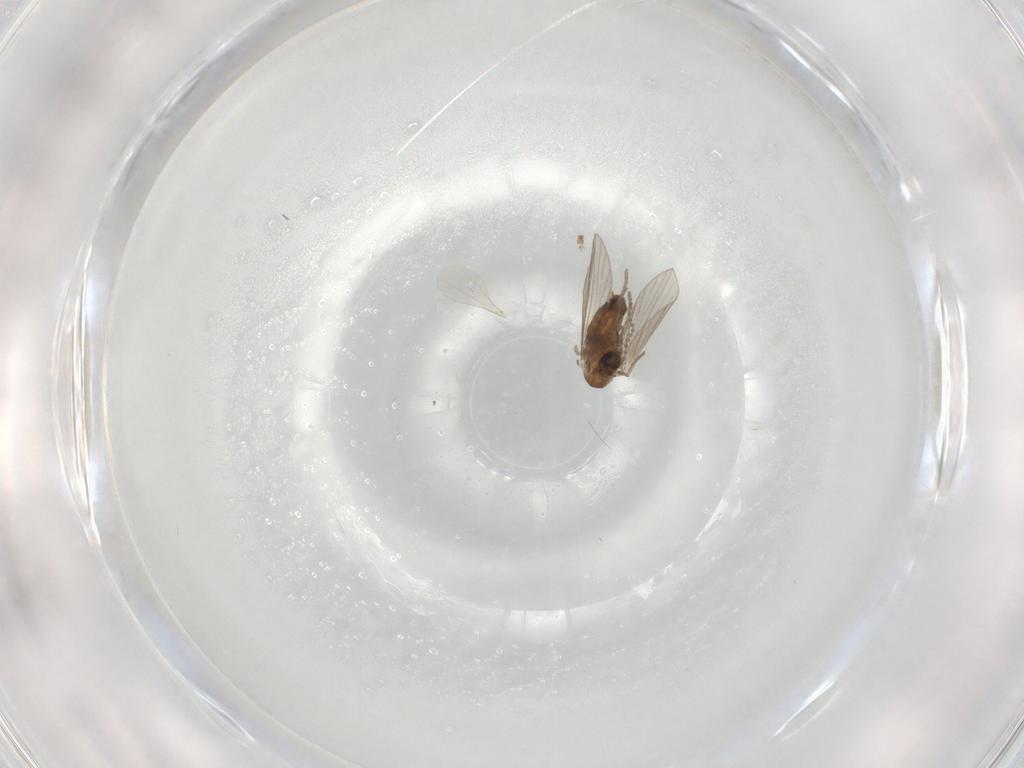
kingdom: Animalia
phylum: Arthropoda
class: Insecta
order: Diptera
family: Psychodidae
